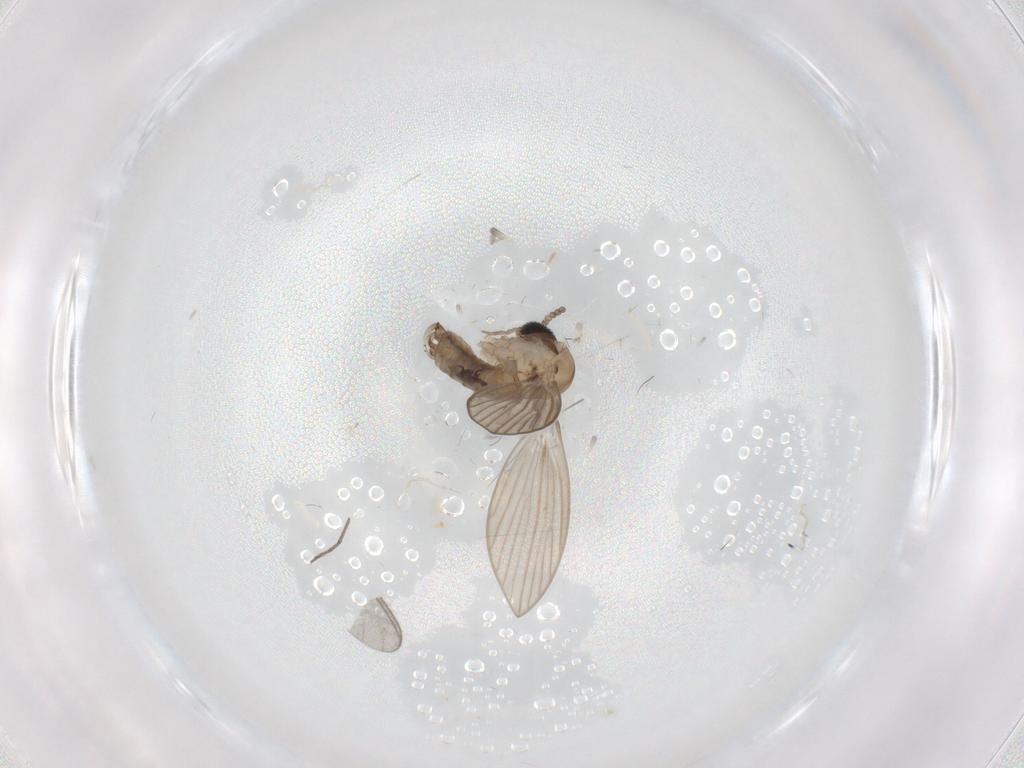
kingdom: Animalia
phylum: Arthropoda
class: Insecta
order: Diptera
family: Psychodidae
